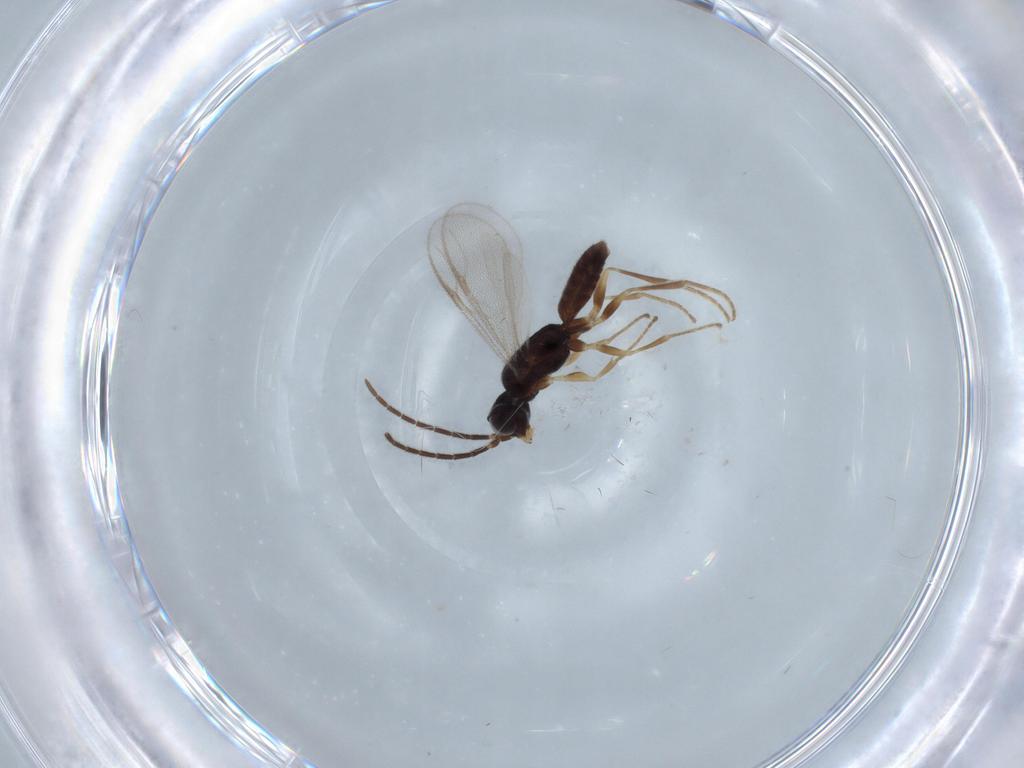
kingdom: Animalia
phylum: Arthropoda
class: Insecta
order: Hymenoptera
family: Dryinidae
